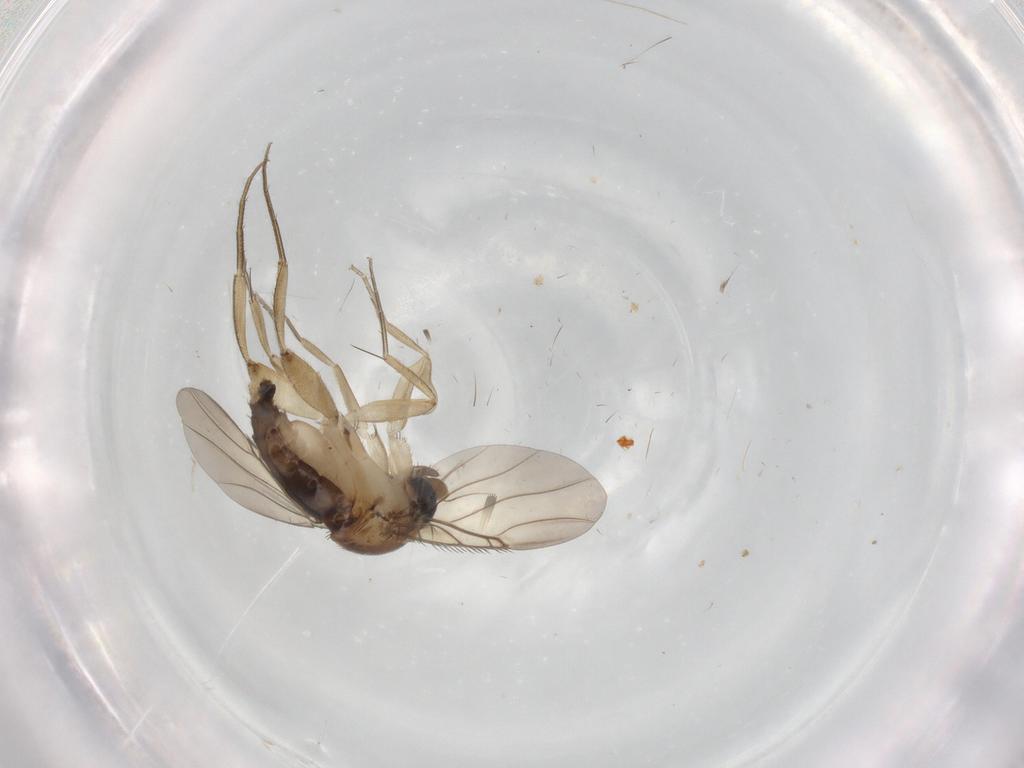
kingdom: Animalia
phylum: Arthropoda
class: Insecta
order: Diptera
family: Phoridae
